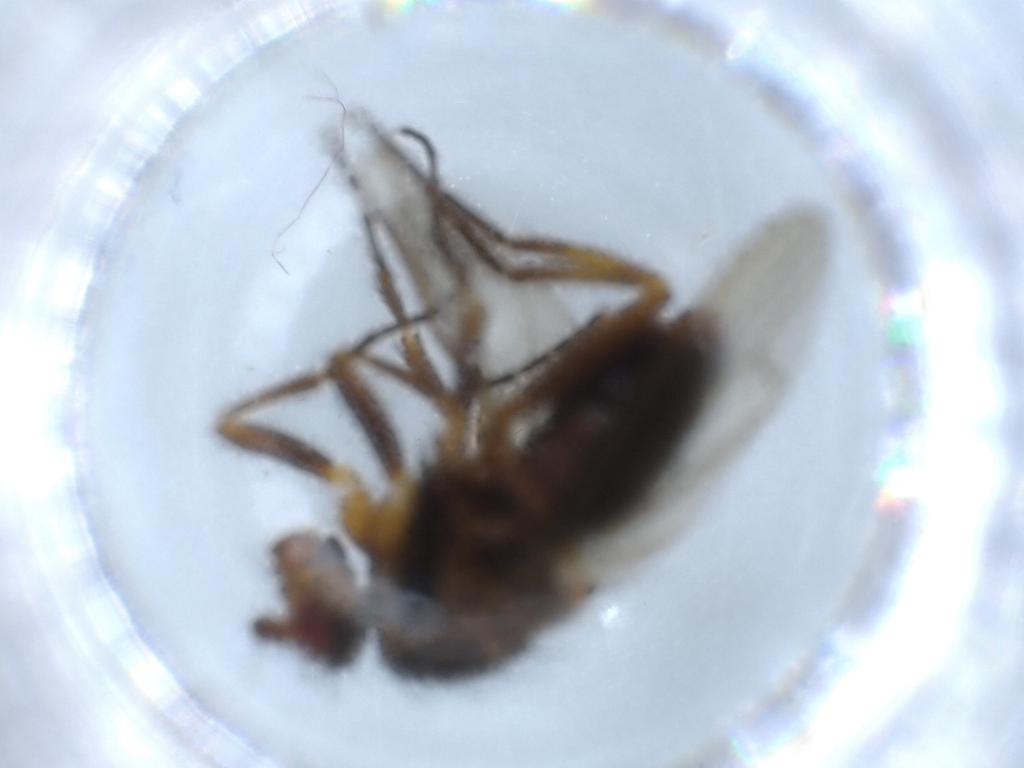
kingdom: Animalia
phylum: Arthropoda
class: Insecta
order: Diptera
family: Heleomyzidae
